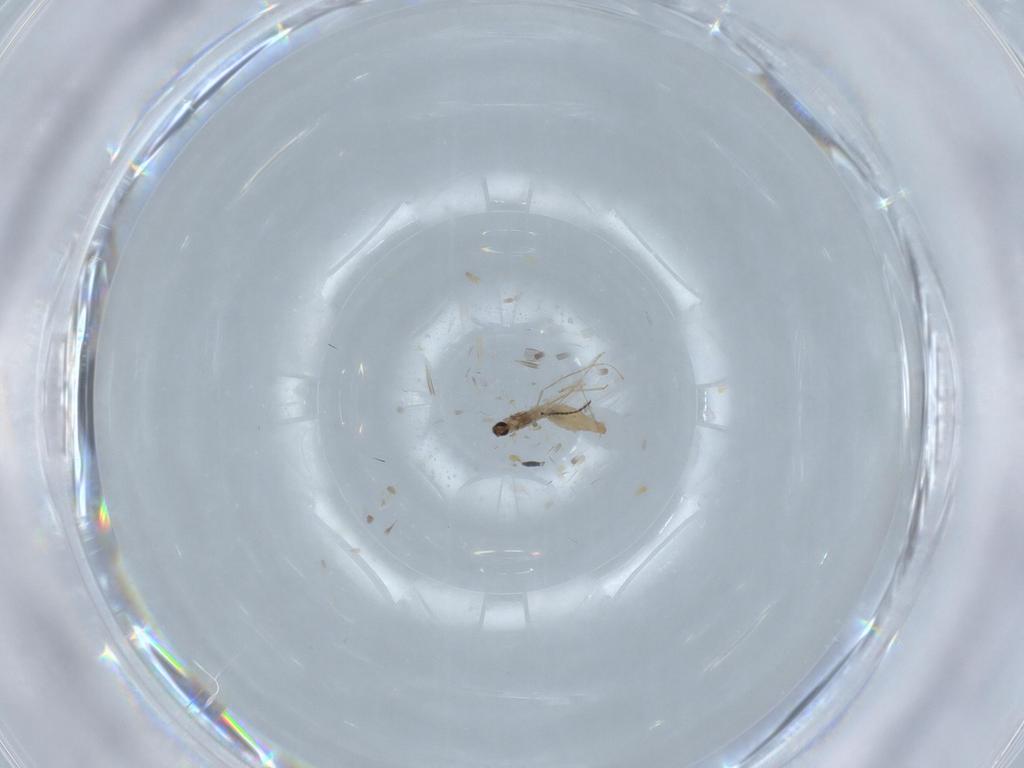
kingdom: Animalia
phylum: Arthropoda
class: Insecta
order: Diptera
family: Cecidomyiidae
